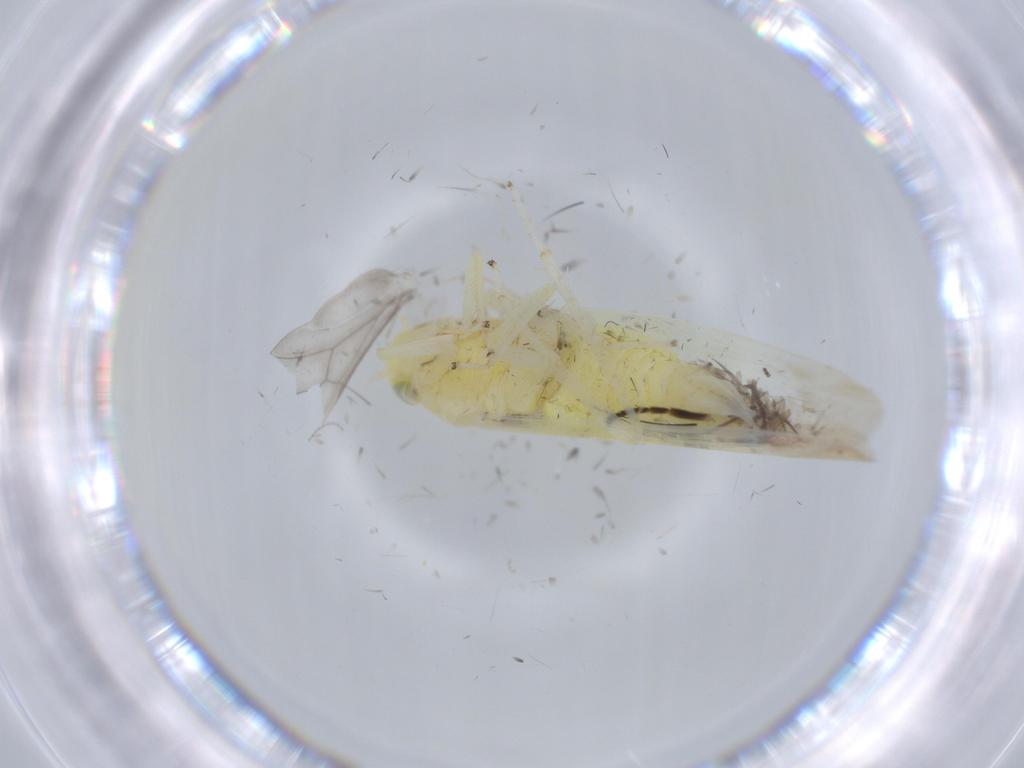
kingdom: Animalia
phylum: Arthropoda
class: Insecta
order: Hemiptera
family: Cicadellidae
